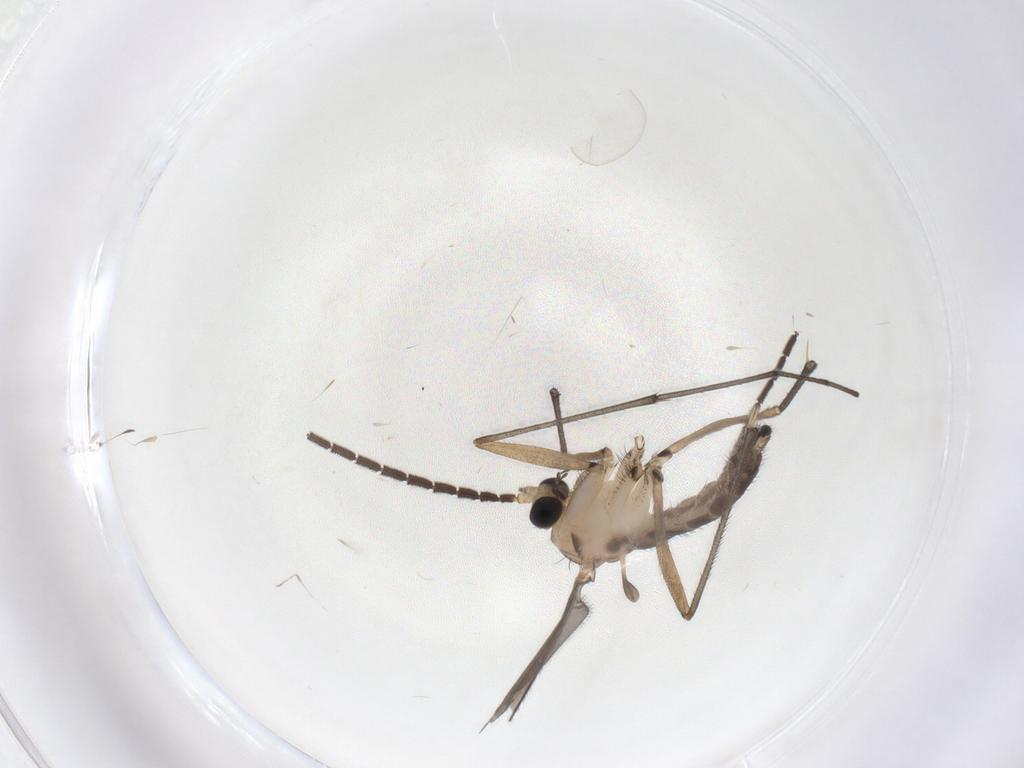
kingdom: Animalia
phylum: Arthropoda
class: Insecta
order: Diptera
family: Sciaridae
